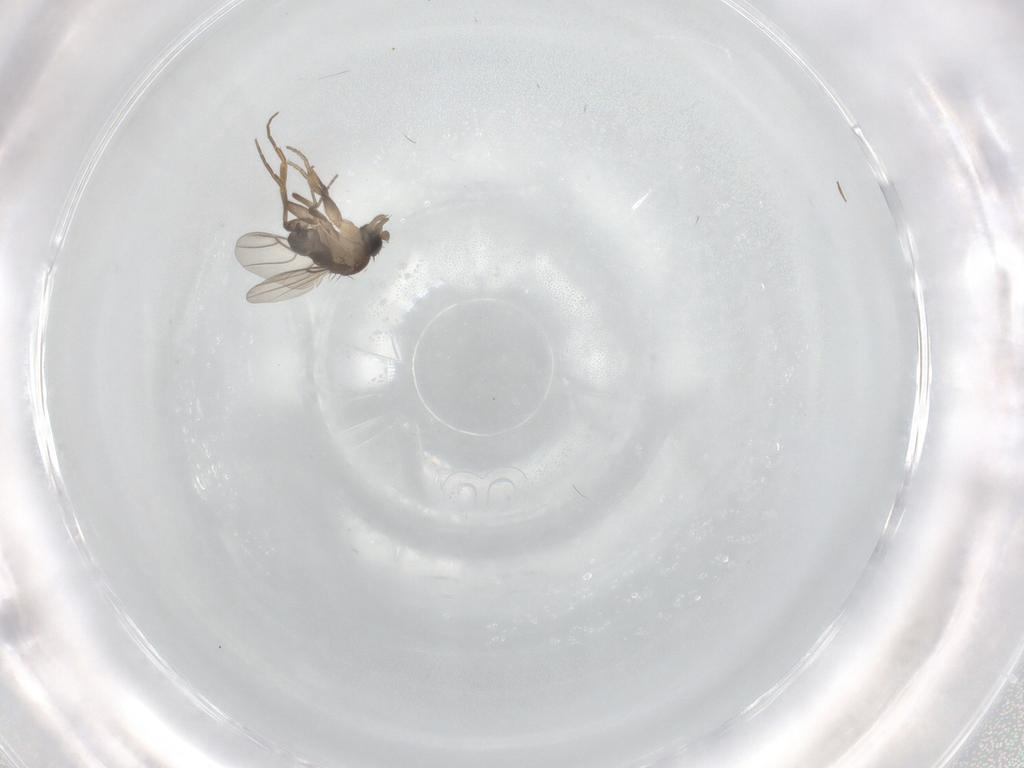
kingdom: Animalia
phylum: Arthropoda
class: Insecta
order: Diptera
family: Phoridae
